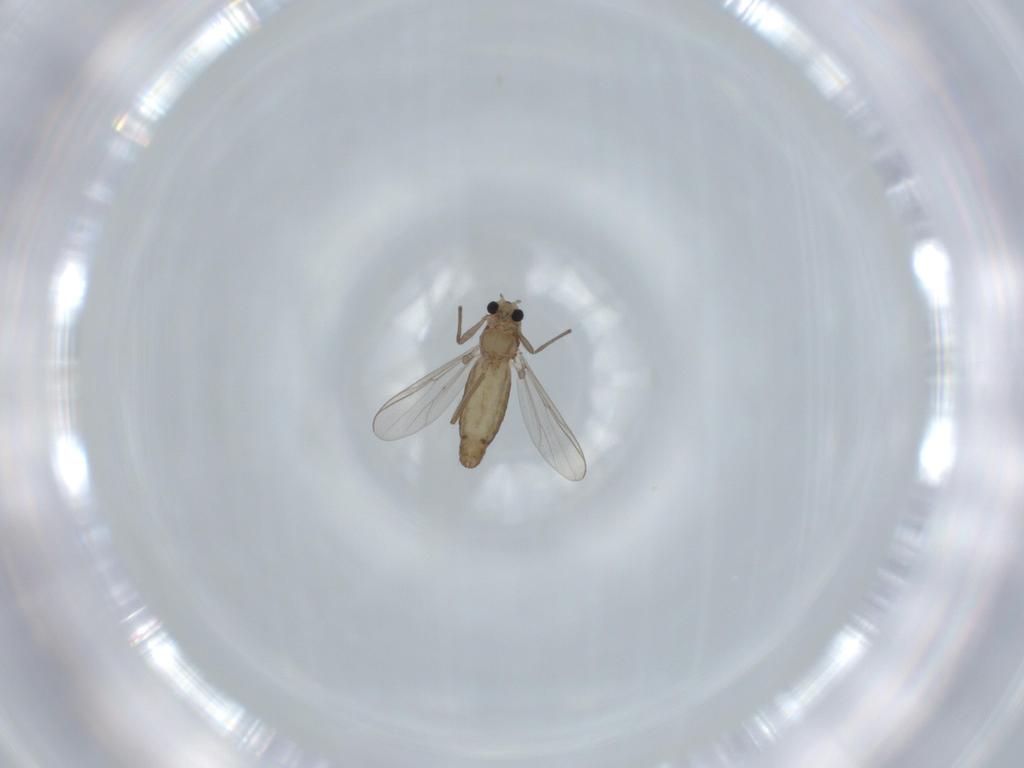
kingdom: Animalia
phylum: Arthropoda
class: Insecta
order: Diptera
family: Chironomidae
